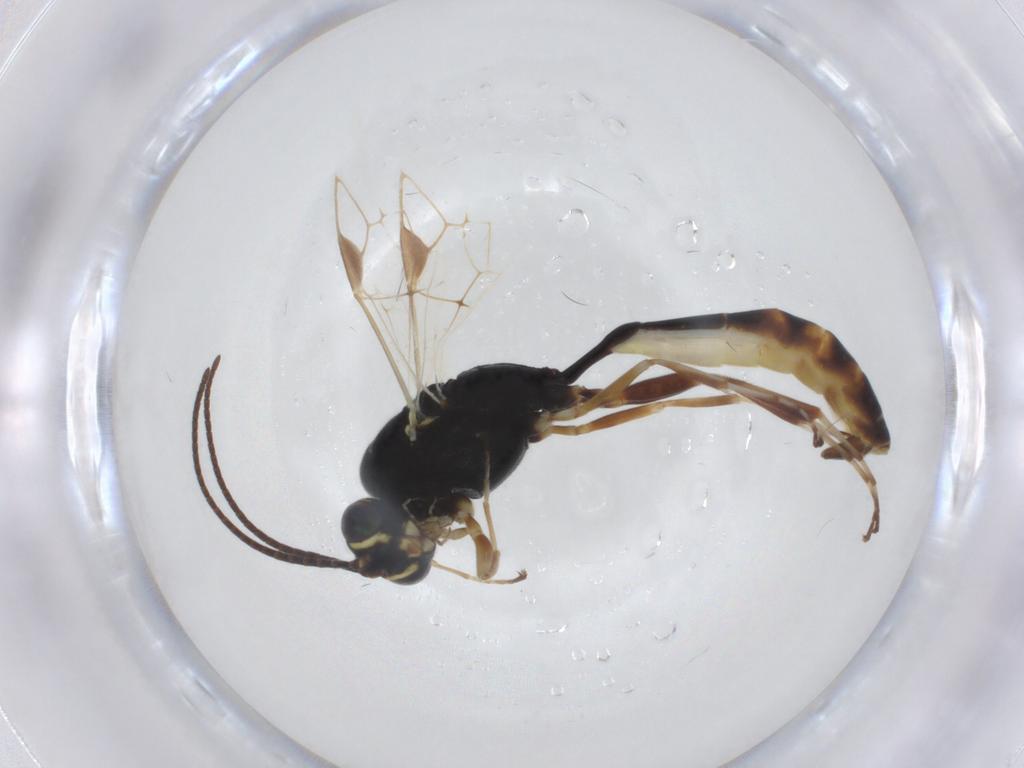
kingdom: Animalia
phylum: Arthropoda
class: Insecta
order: Hymenoptera
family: Ichneumonidae
